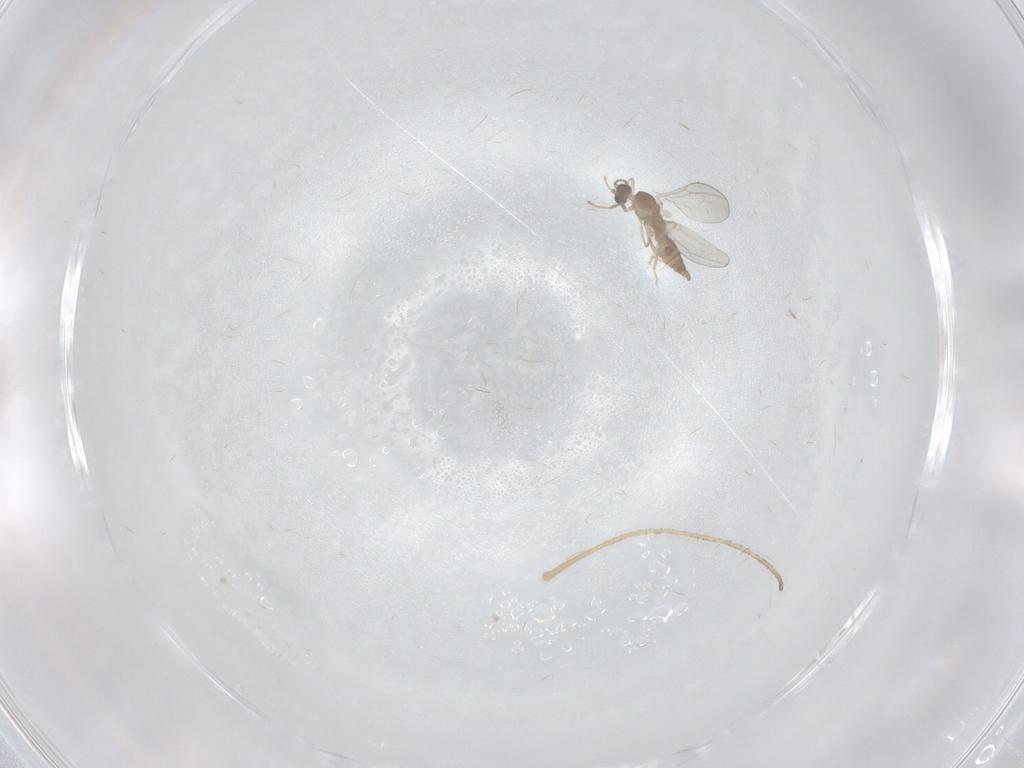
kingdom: Animalia
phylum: Arthropoda
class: Insecta
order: Diptera
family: Cecidomyiidae
